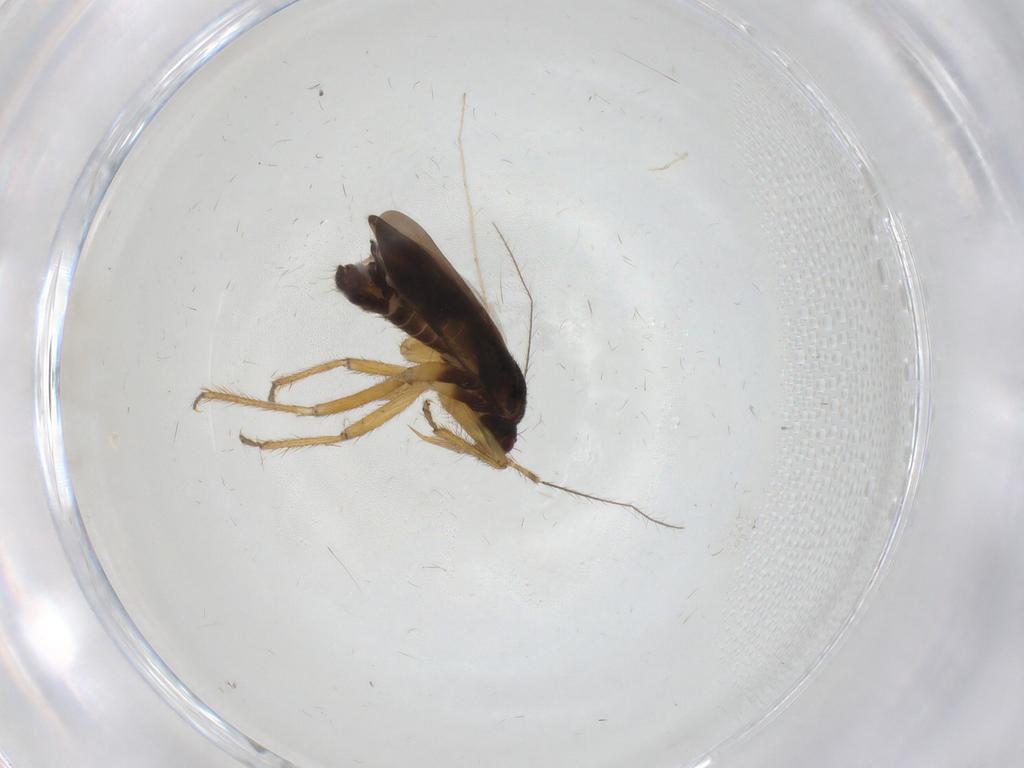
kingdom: Animalia
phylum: Arthropoda
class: Insecta
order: Hemiptera
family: Ceratocombidae
